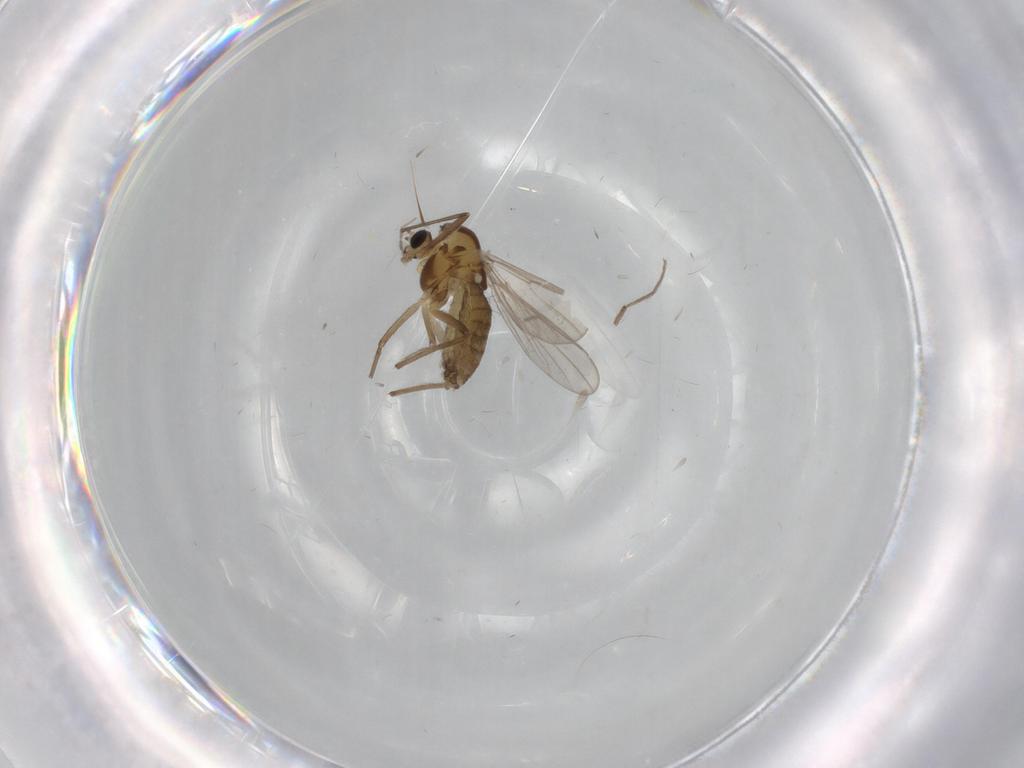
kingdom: Animalia
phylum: Arthropoda
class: Insecta
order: Diptera
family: Chironomidae
